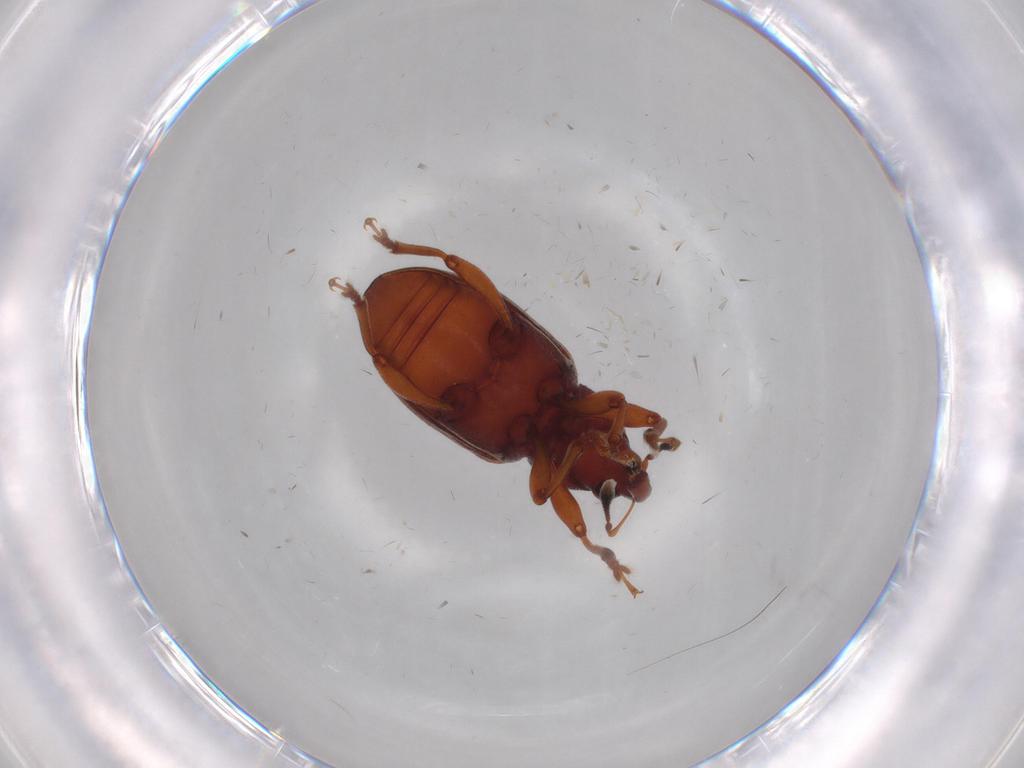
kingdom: Animalia
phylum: Arthropoda
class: Insecta
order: Coleoptera
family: Curculionidae
